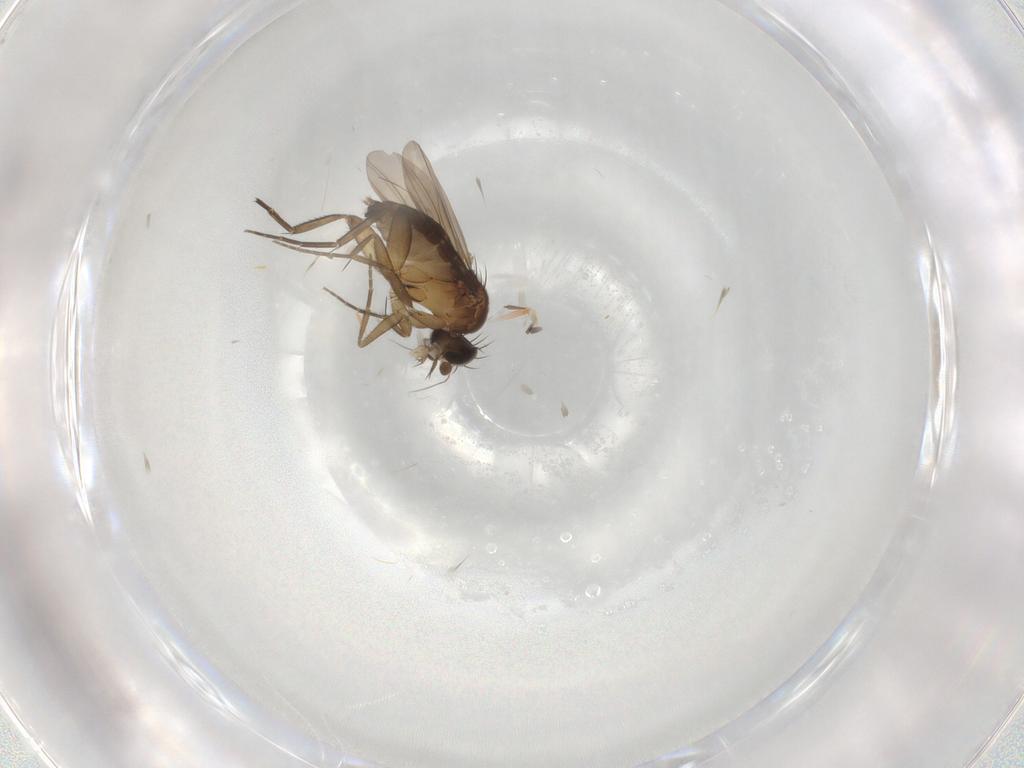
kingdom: Animalia
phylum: Arthropoda
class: Insecta
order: Diptera
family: Phoridae
